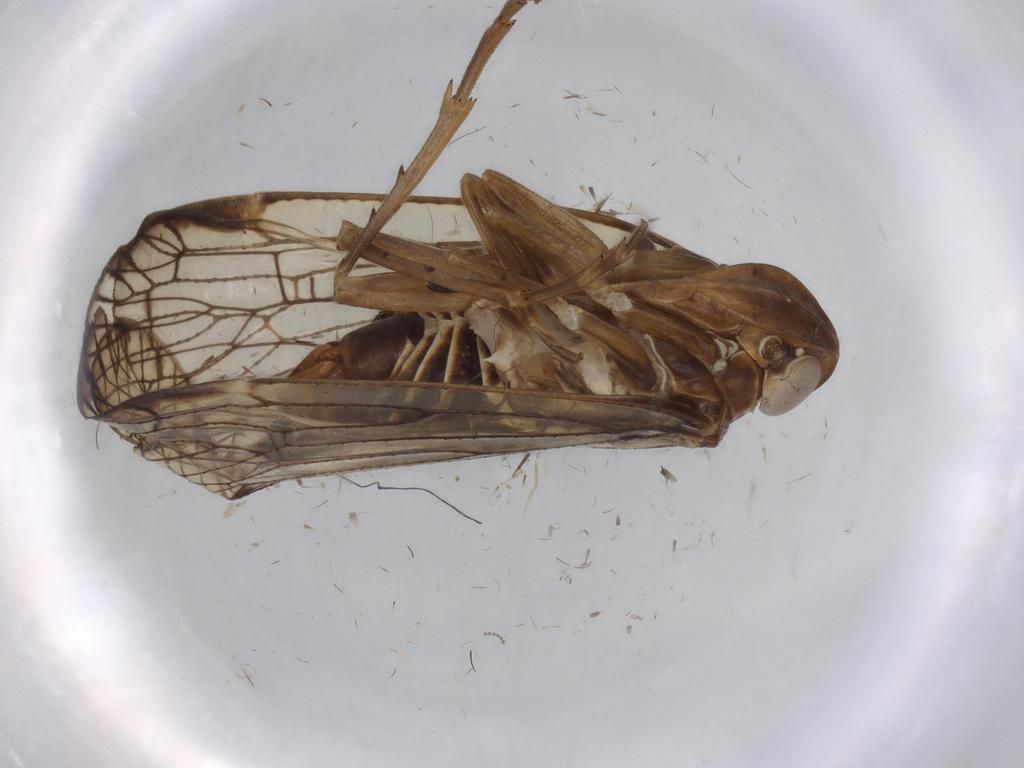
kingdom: Animalia
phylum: Arthropoda
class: Insecta
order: Hemiptera
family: Cixiidae
